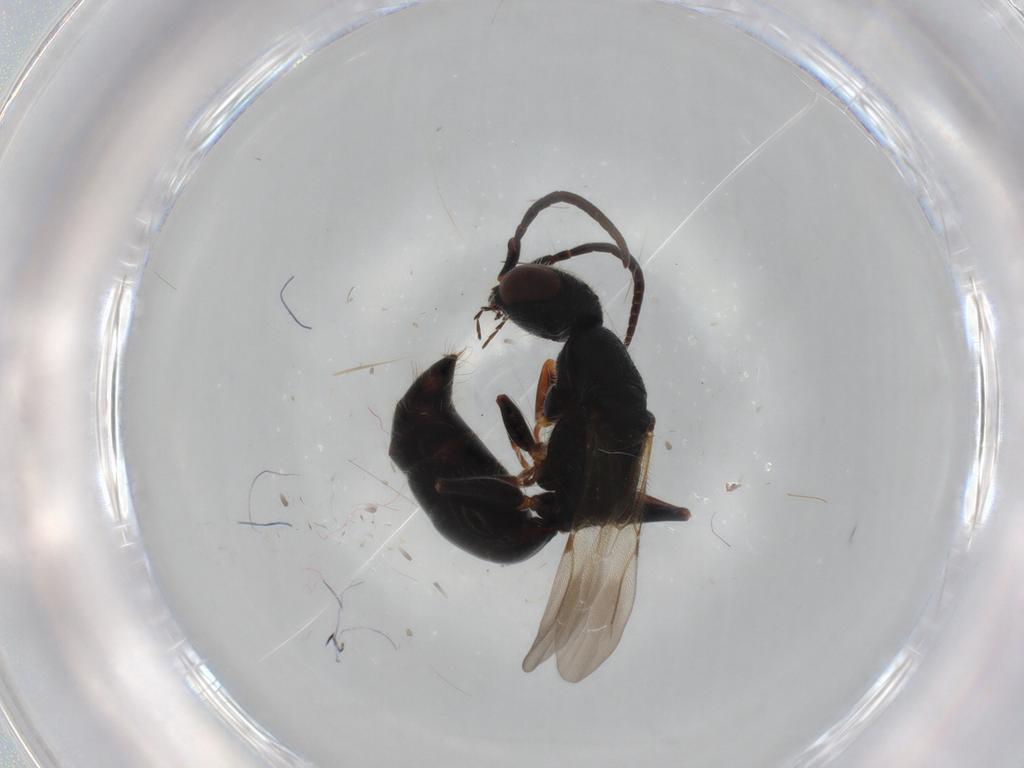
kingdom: Animalia
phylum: Arthropoda
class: Insecta
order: Hymenoptera
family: Bethylidae
